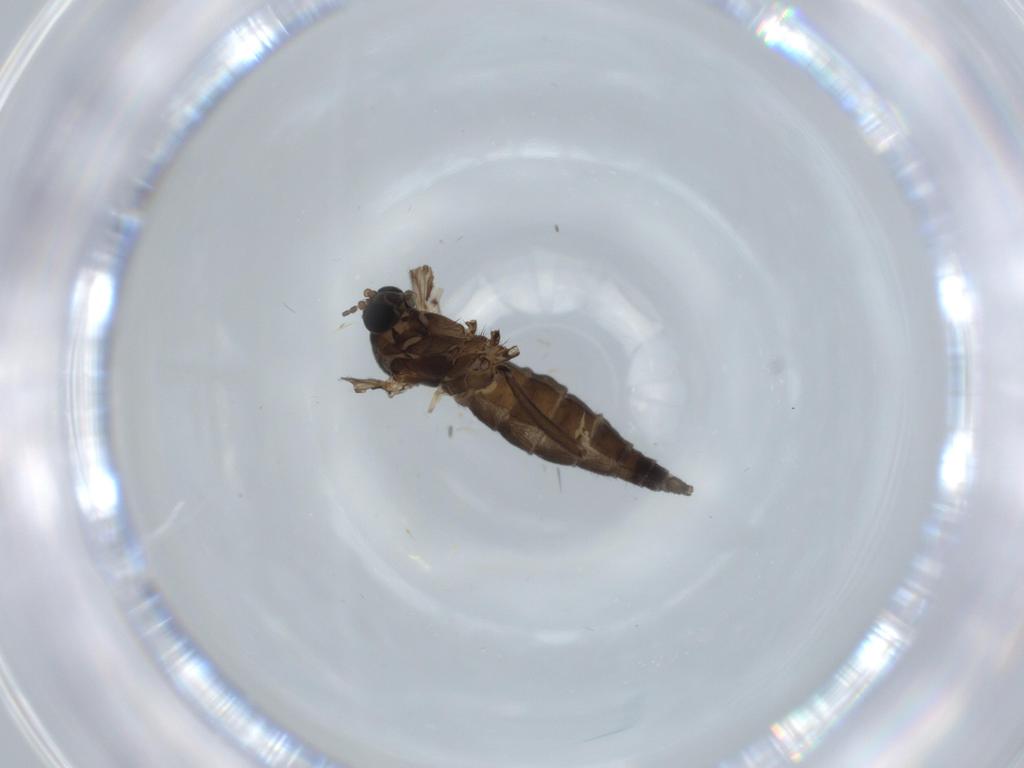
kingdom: Animalia
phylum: Arthropoda
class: Insecta
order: Diptera
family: Sciaridae
